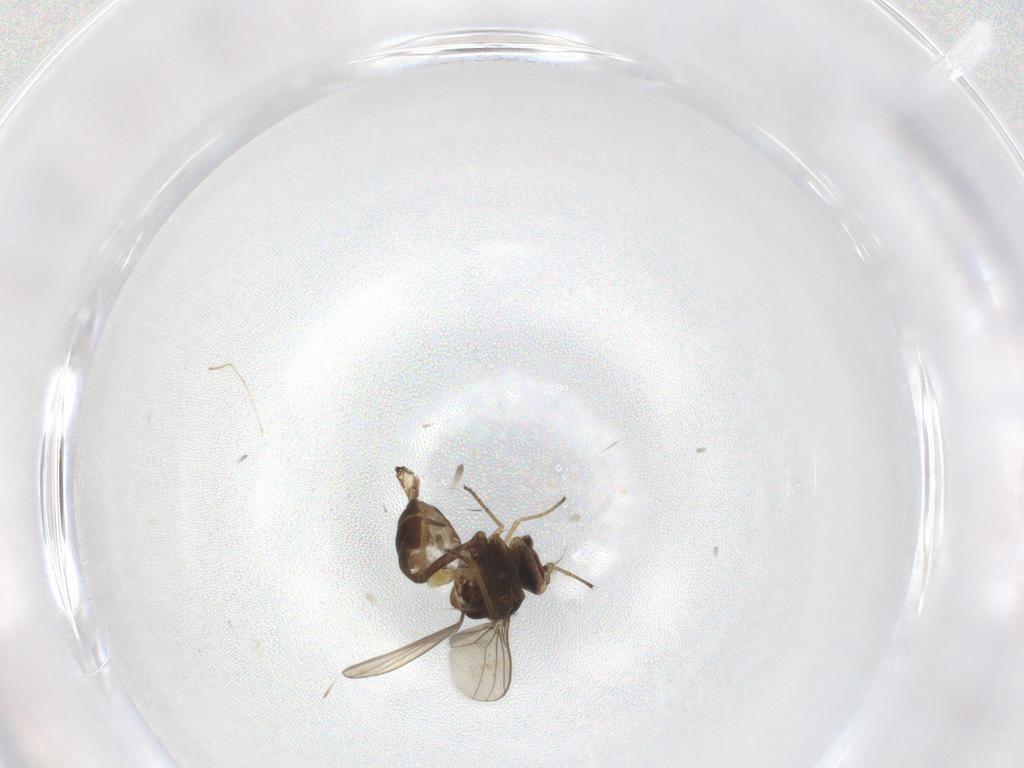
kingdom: Animalia
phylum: Arthropoda
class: Insecta
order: Diptera
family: Dolichopodidae
